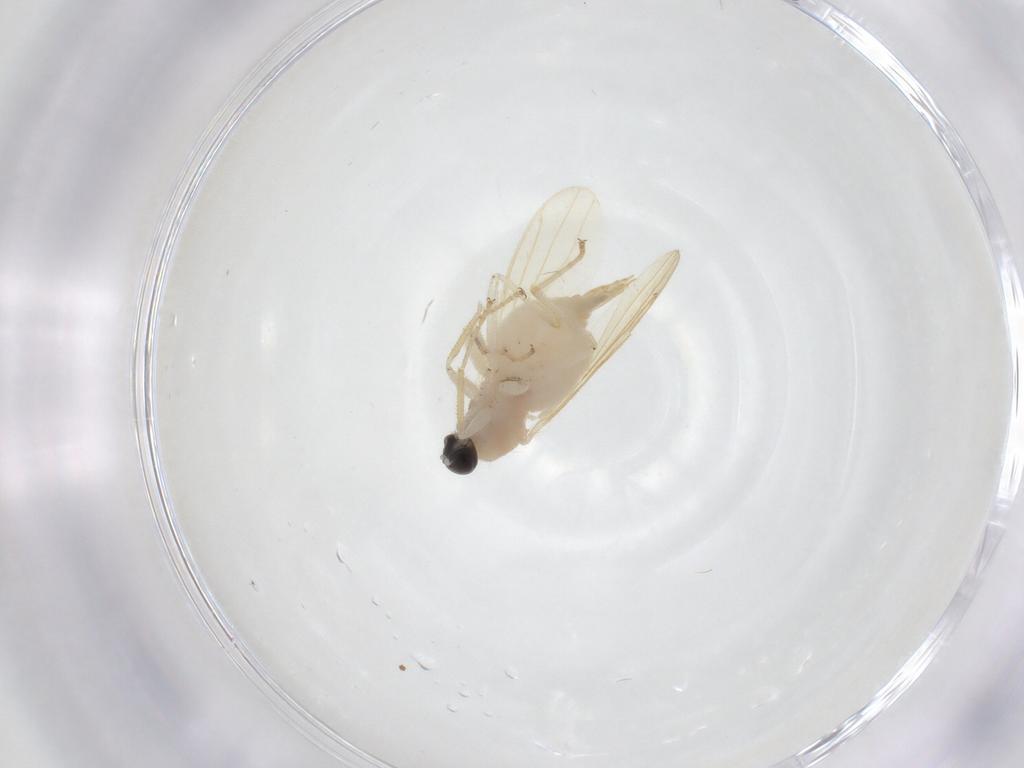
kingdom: Animalia
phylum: Arthropoda
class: Insecta
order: Diptera
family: Hybotidae
